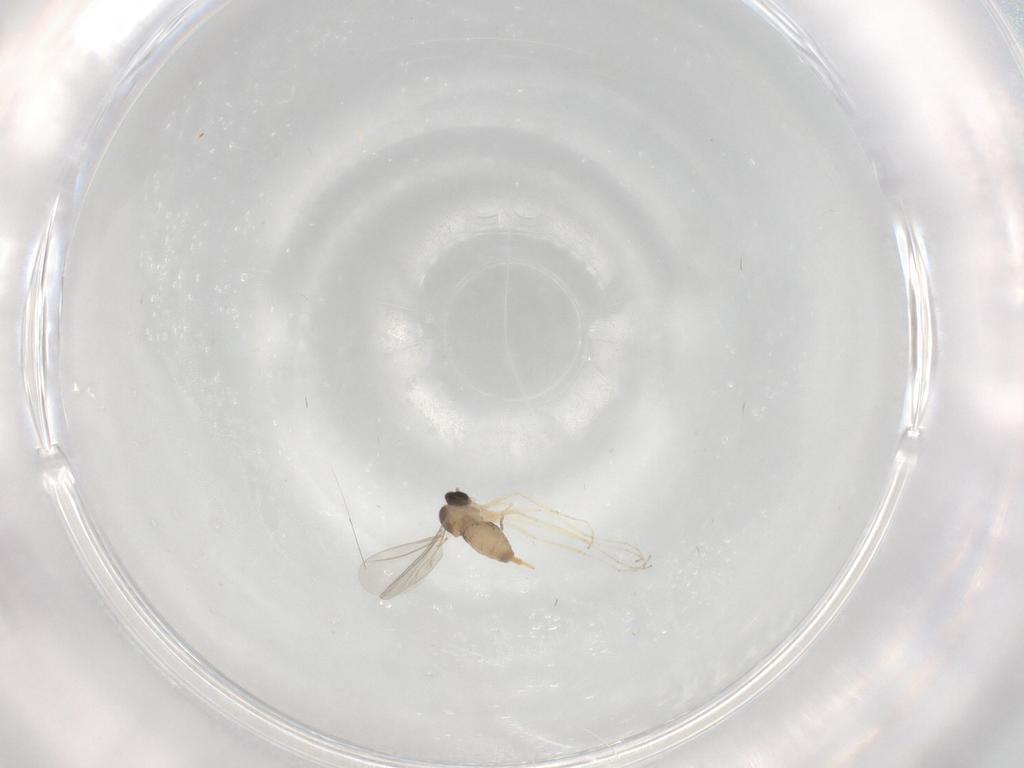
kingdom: Animalia
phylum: Arthropoda
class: Insecta
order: Diptera
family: Cecidomyiidae
